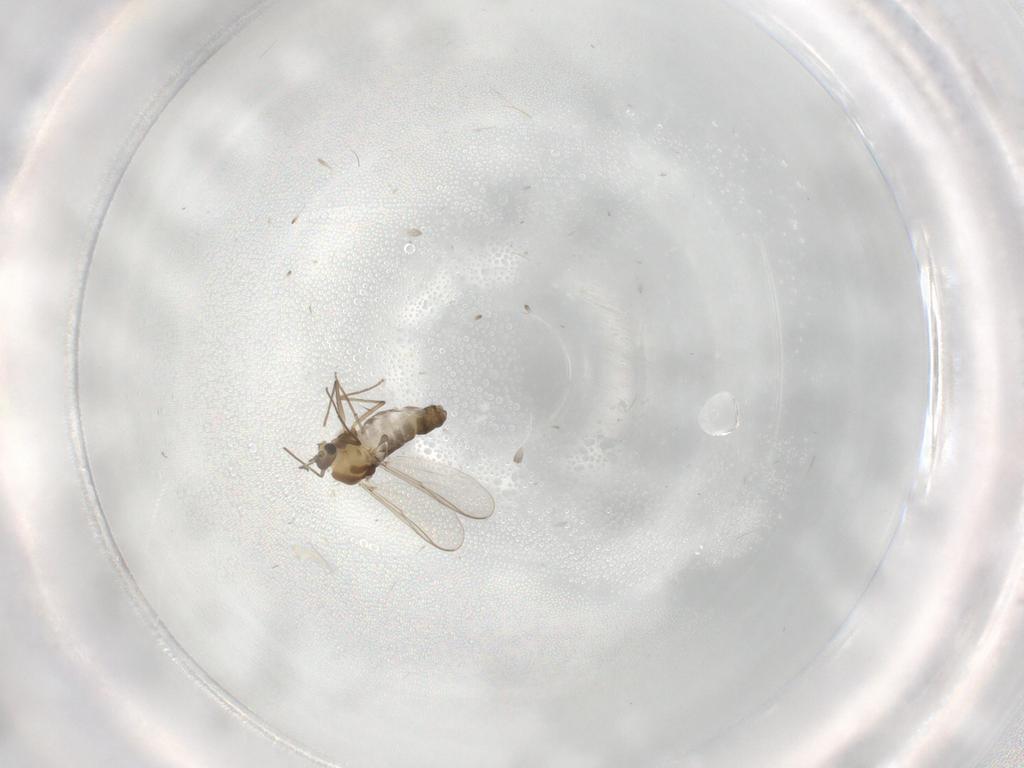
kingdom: Animalia
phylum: Arthropoda
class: Insecta
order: Diptera
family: Chironomidae
